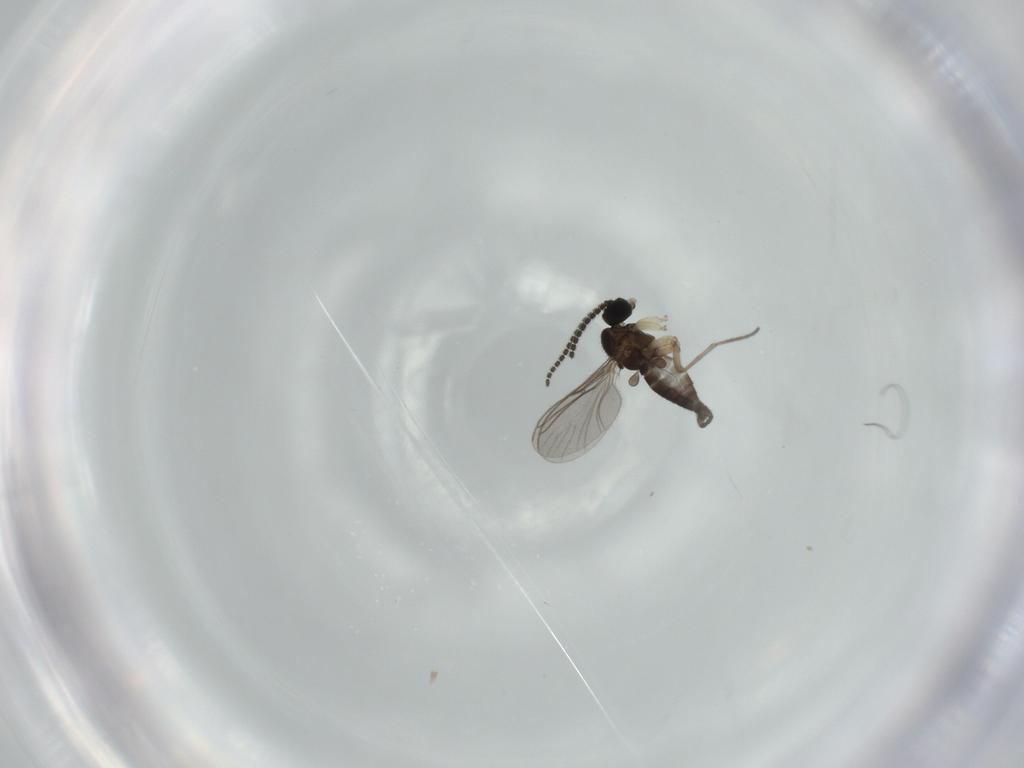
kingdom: Animalia
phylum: Arthropoda
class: Insecta
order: Diptera
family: Sciaridae
